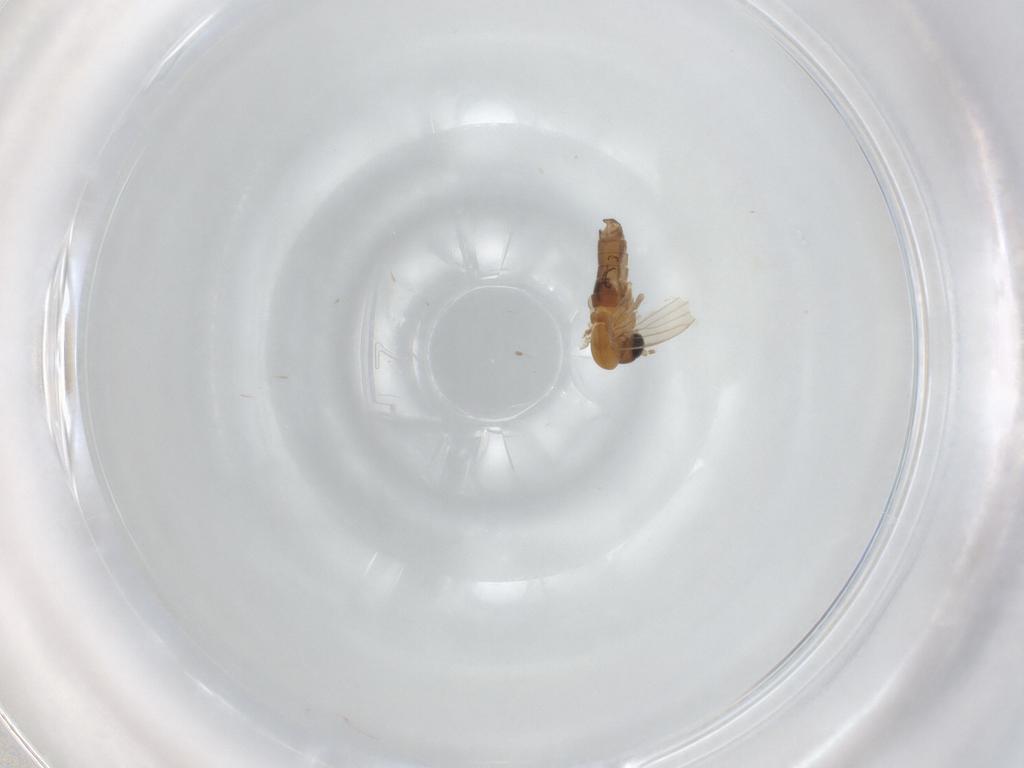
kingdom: Animalia
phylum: Arthropoda
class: Insecta
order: Diptera
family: Ceratopogonidae
